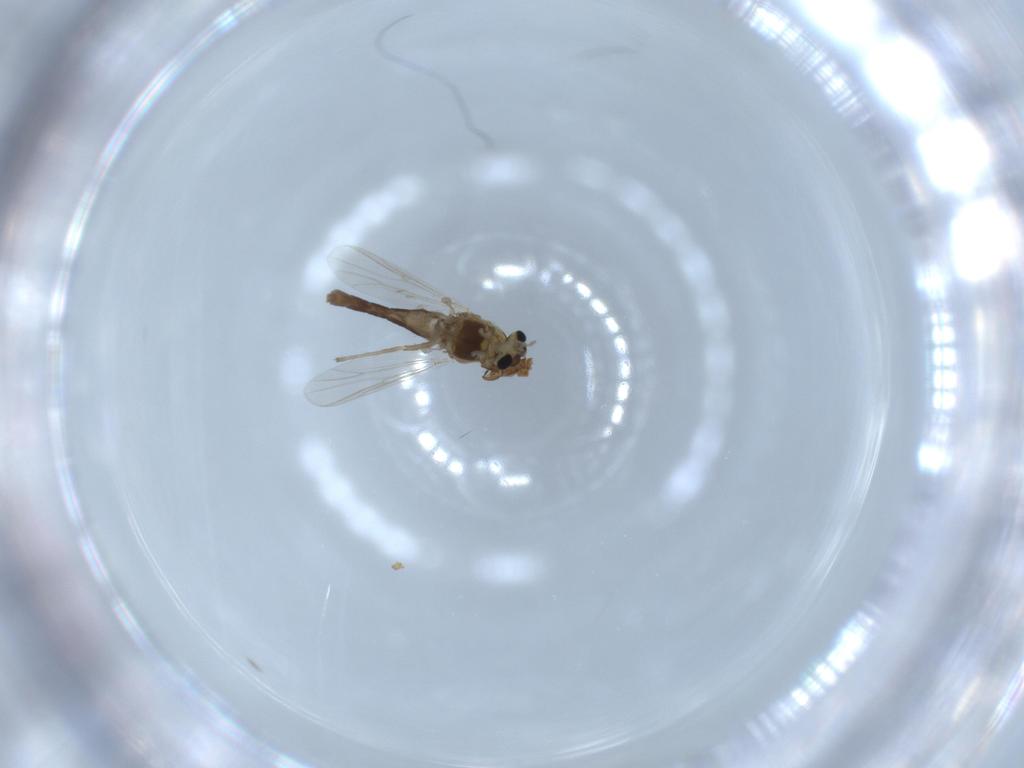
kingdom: Animalia
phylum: Arthropoda
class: Insecta
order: Diptera
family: Chironomidae
